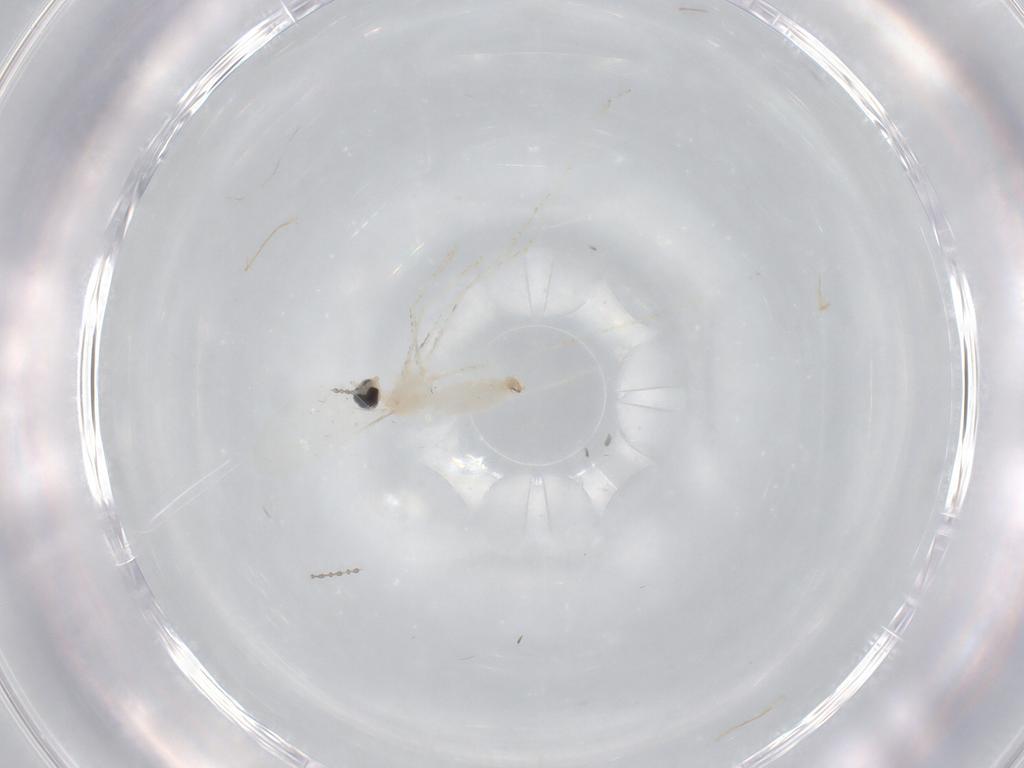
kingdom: Animalia
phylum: Arthropoda
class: Insecta
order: Diptera
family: Cecidomyiidae
